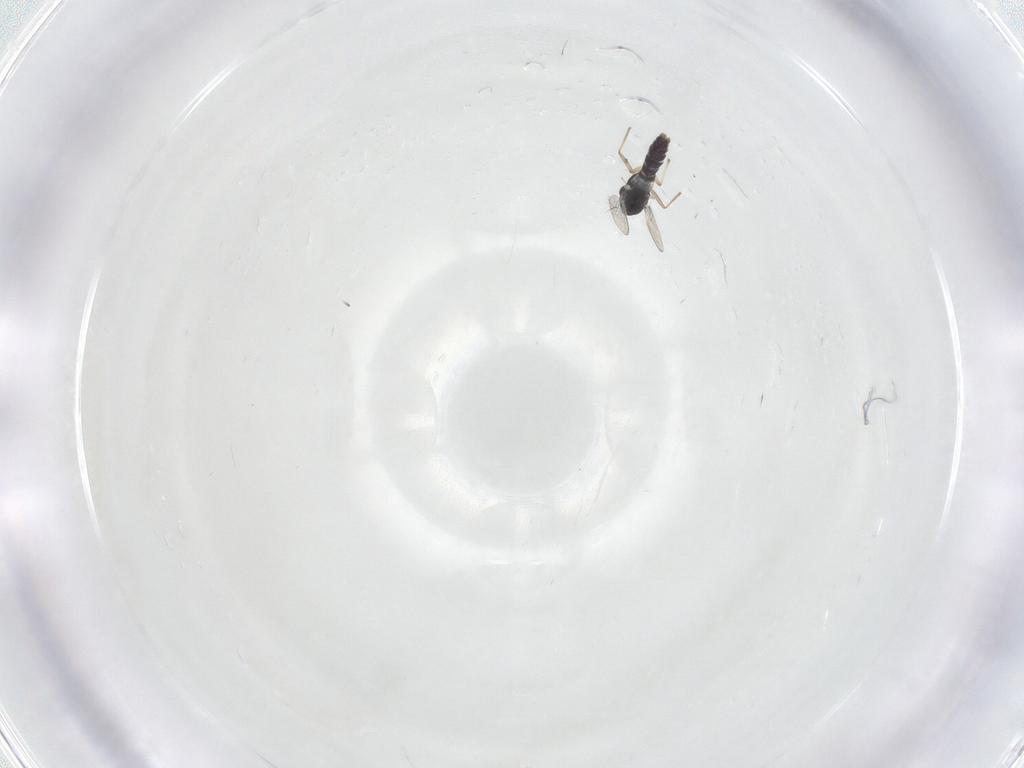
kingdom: Animalia
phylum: Arthropoda
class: Insecta
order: Diptera
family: Chironomidae
